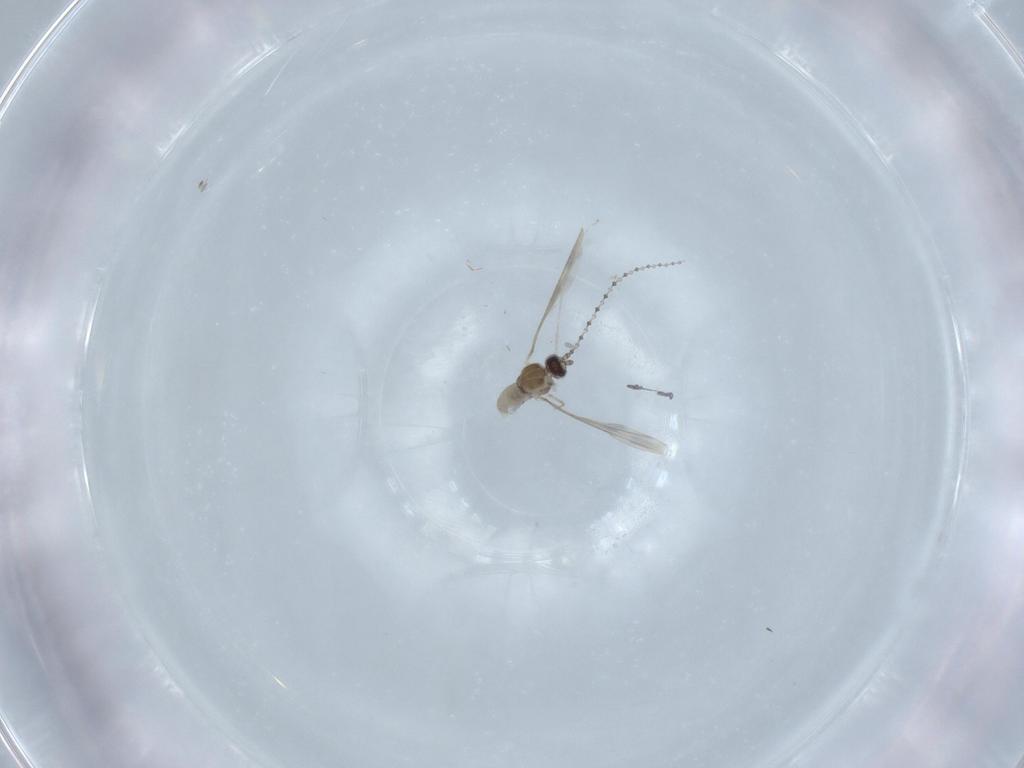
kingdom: Animalia
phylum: Arthropoda
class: Insecta
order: Diptera
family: Cecidomyiidae
